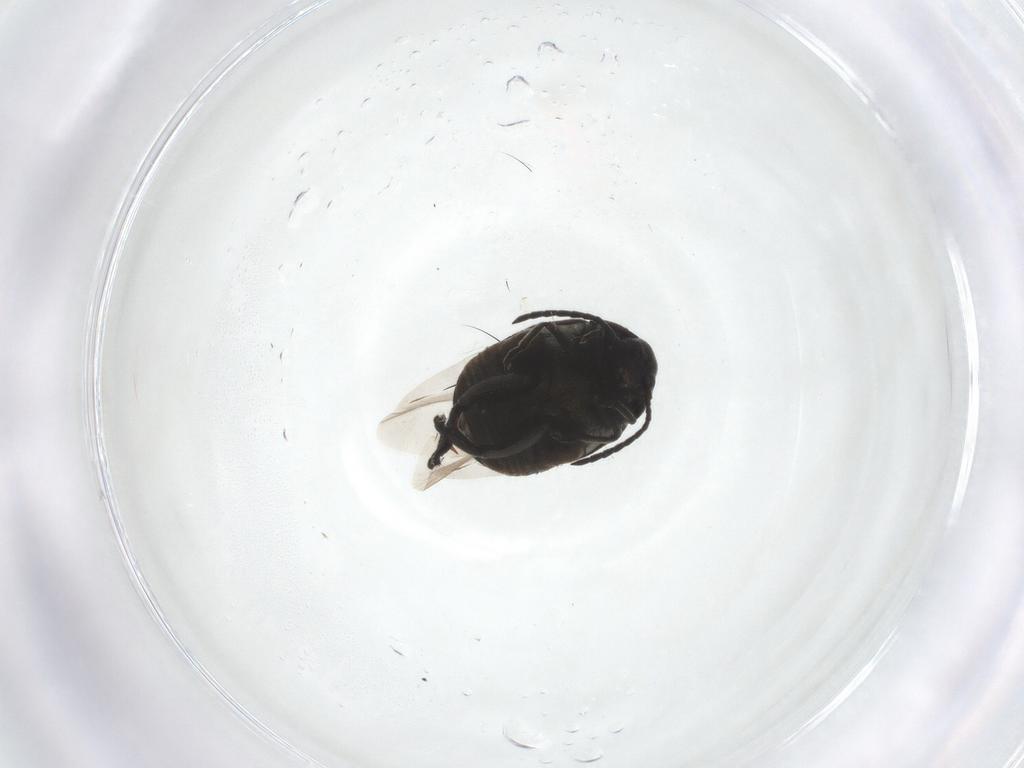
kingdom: Animalia
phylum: Arthropoda
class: Insecta
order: Coleoptera
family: Chrysomelidae
